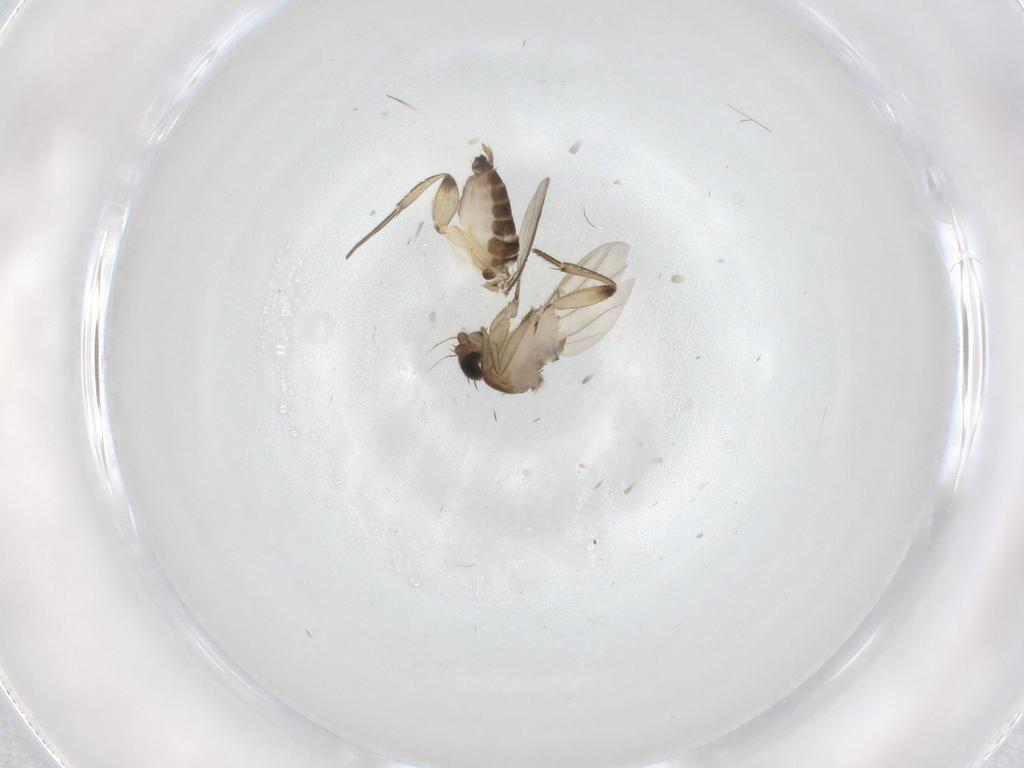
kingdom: Animalia
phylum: Arthropoda
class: Insecta
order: Diptera
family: Phoridae
